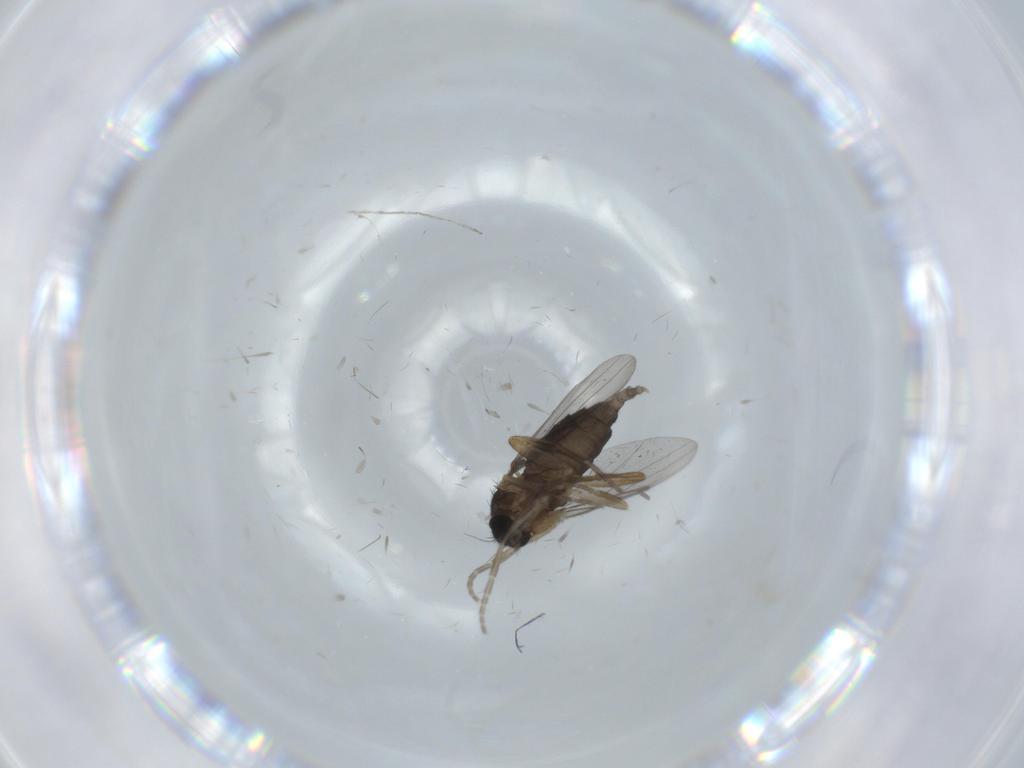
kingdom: Animalia
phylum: Arthropoda
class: Insecta
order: Diptera
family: Phoridae
